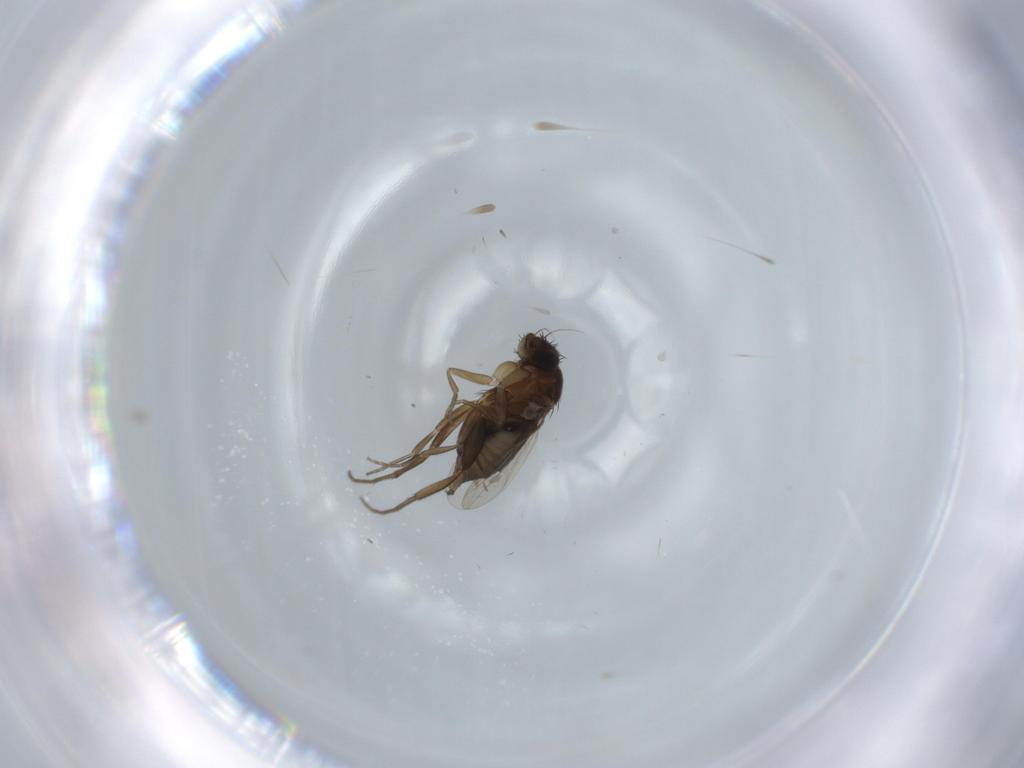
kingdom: Animalia
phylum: Arthropoda
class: Insecta
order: Diptera
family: Phoridae
